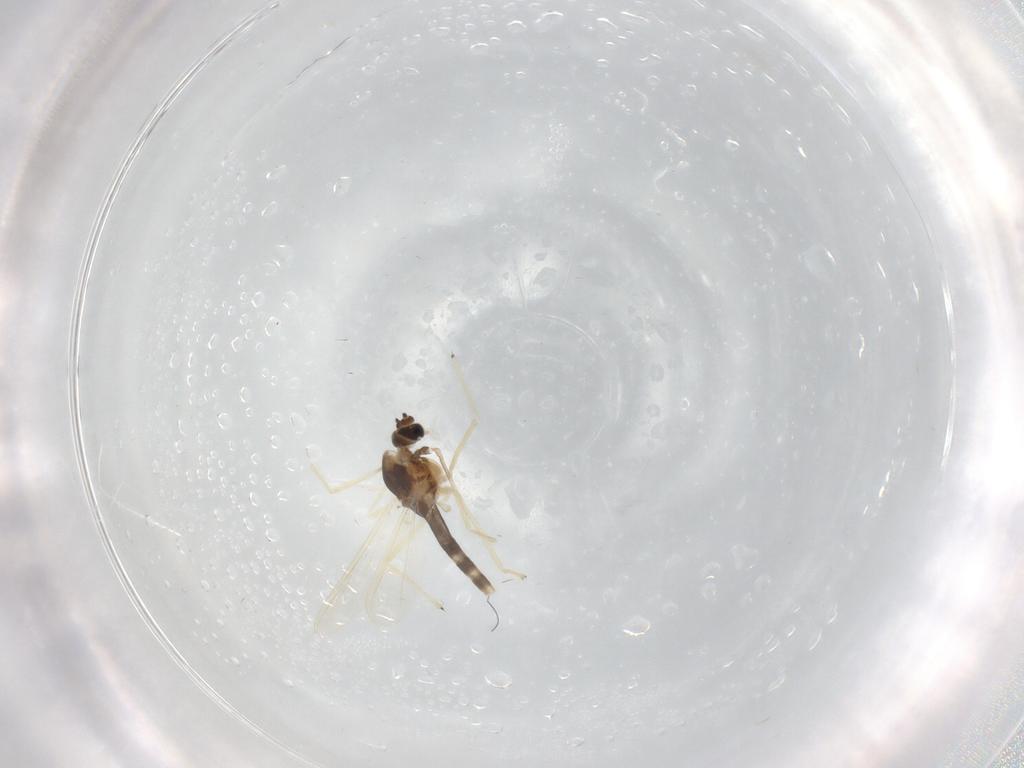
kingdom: Animalia
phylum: Arthropoda
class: Insecta
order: Diptera
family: Chironomidae
